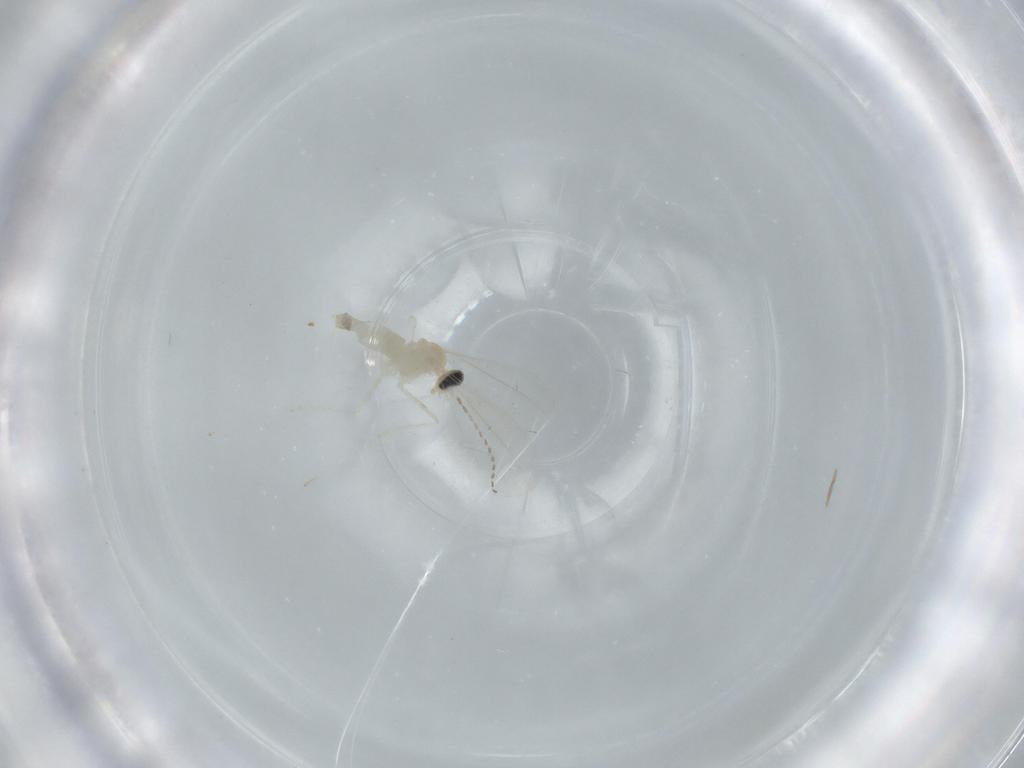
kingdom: Animalia
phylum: Arthropoda
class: Insecta
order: Diptera
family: Cecidomyiidae
